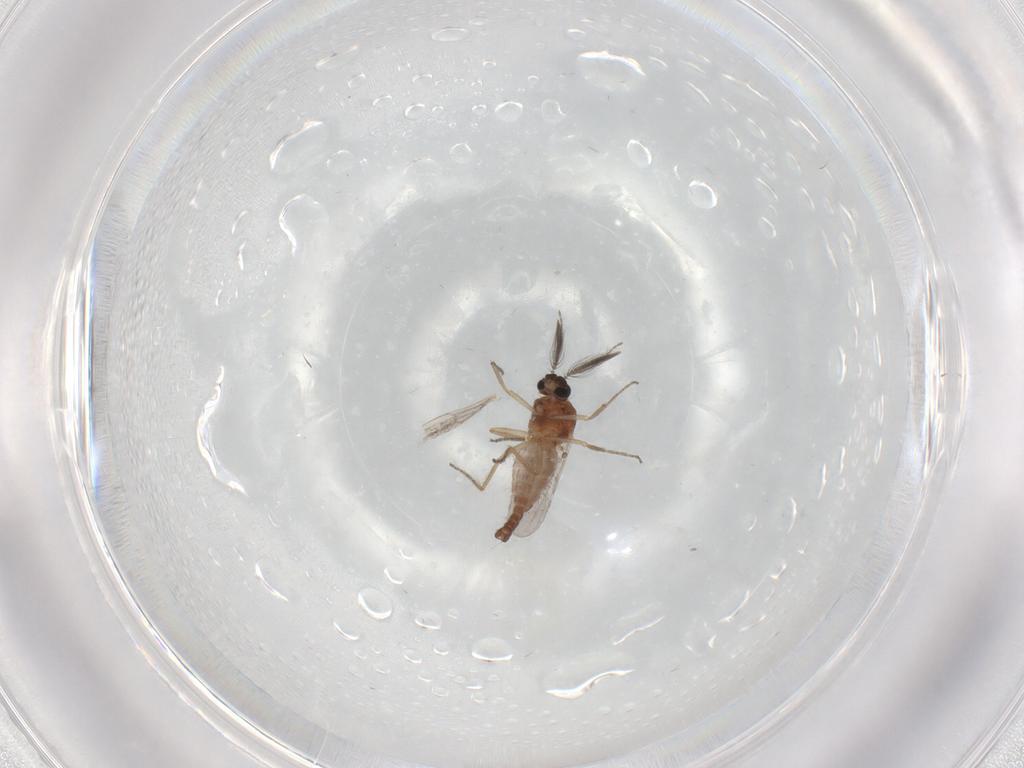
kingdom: Animalia
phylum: Arthropoda
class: Insecta
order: Diptera
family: Ceratopogonidae
